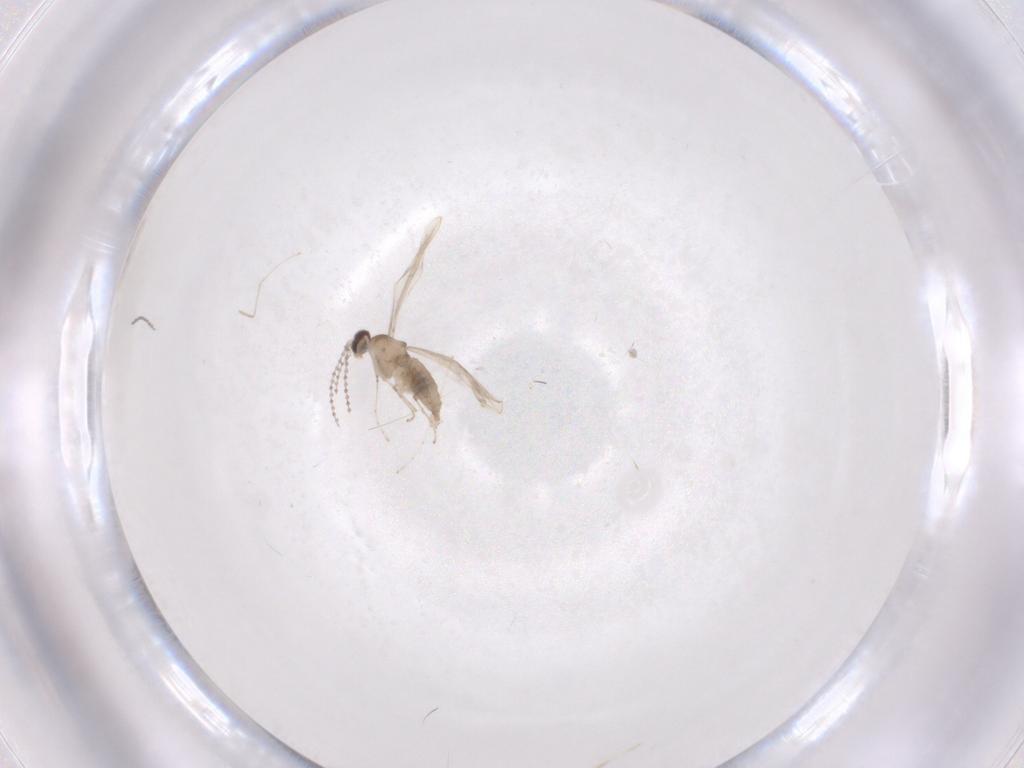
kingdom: Animalia
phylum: Arthropoda
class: Insecta
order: Diptera
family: Cecidomyiidae
